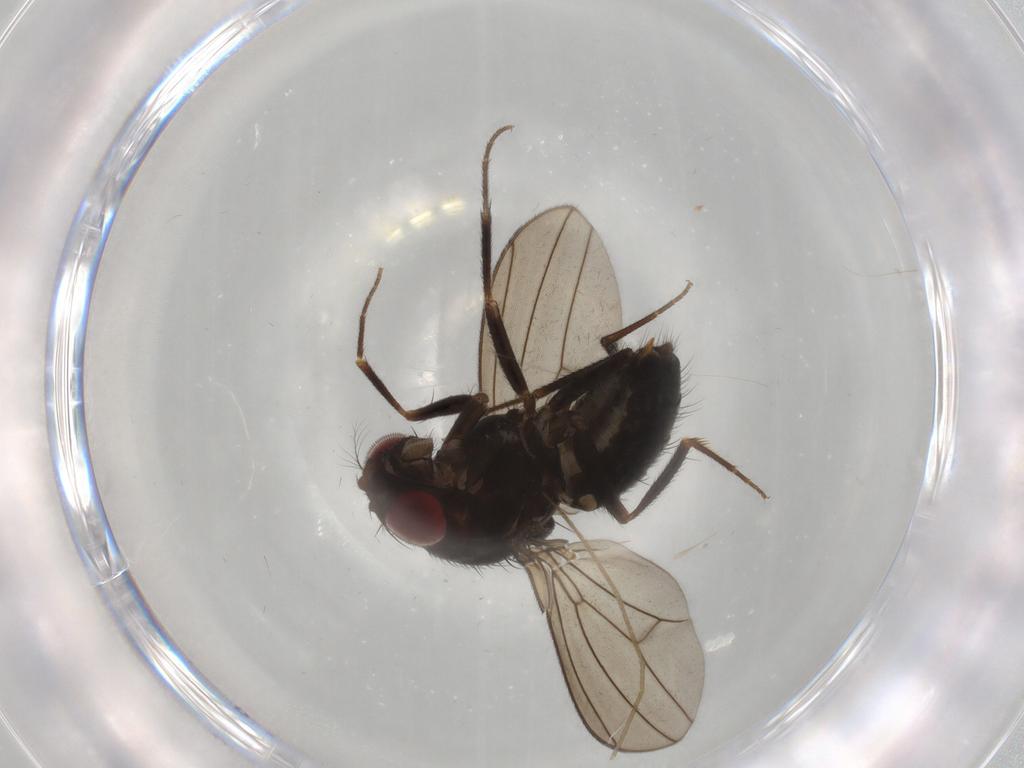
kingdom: Animalia
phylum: Arthropoda
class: Insecta
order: Diptera
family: Drosophilidae
